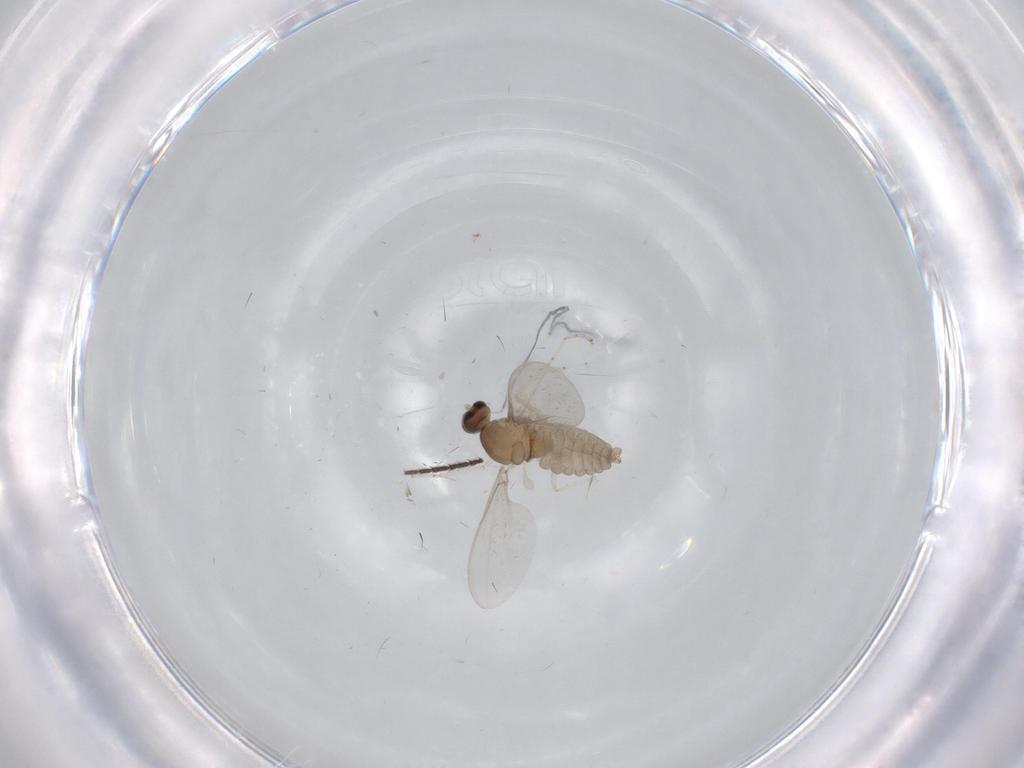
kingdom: Animalia
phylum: Arthropoda
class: Insecta
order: Diptera
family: Cecidomyiidae
